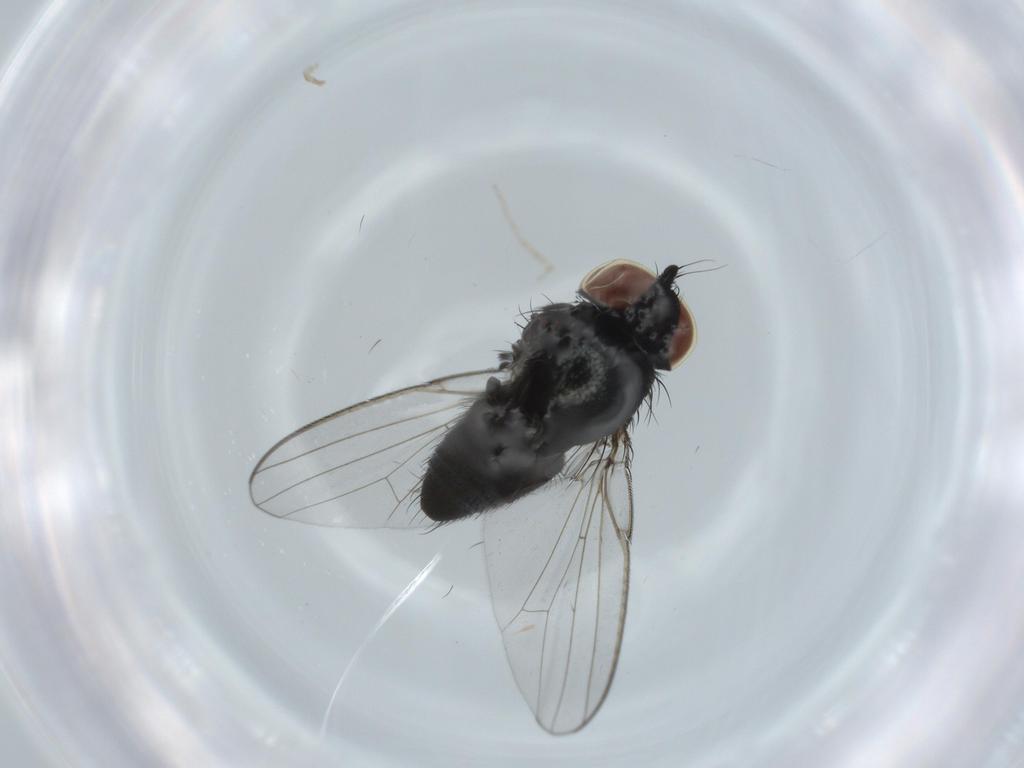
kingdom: Animalia
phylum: Arthropoda
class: Insecta
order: Diptera
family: Milichiidae
